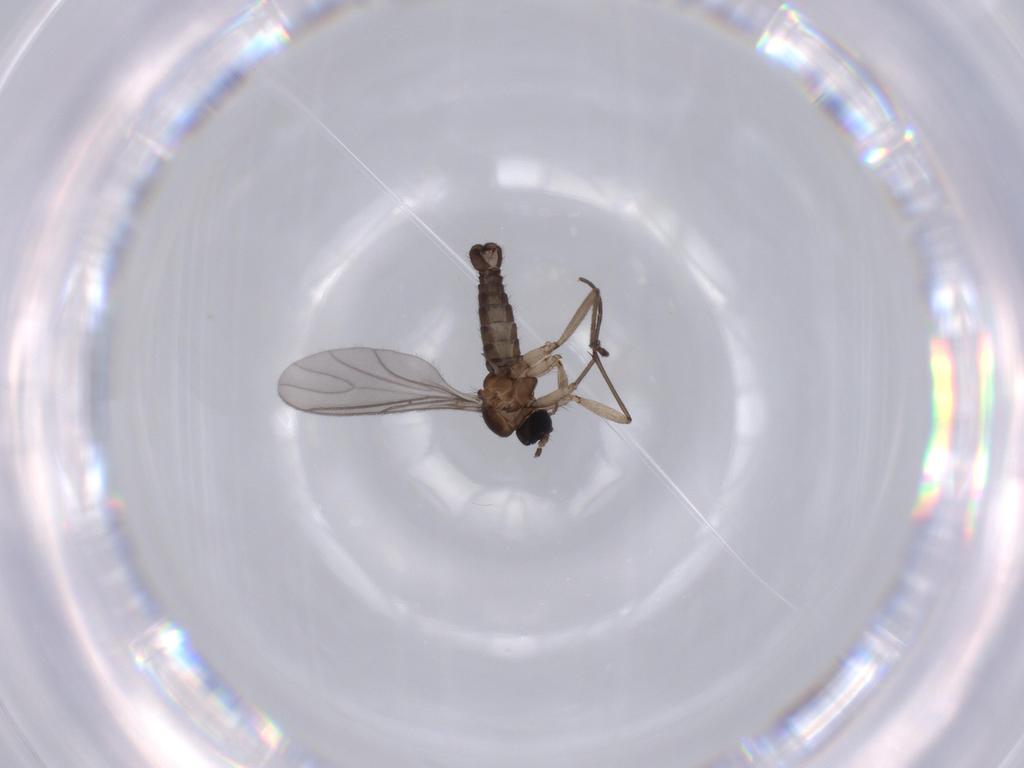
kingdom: Animalia
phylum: Arthropoda
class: Insecta
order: Diptera
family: Sciaridae
